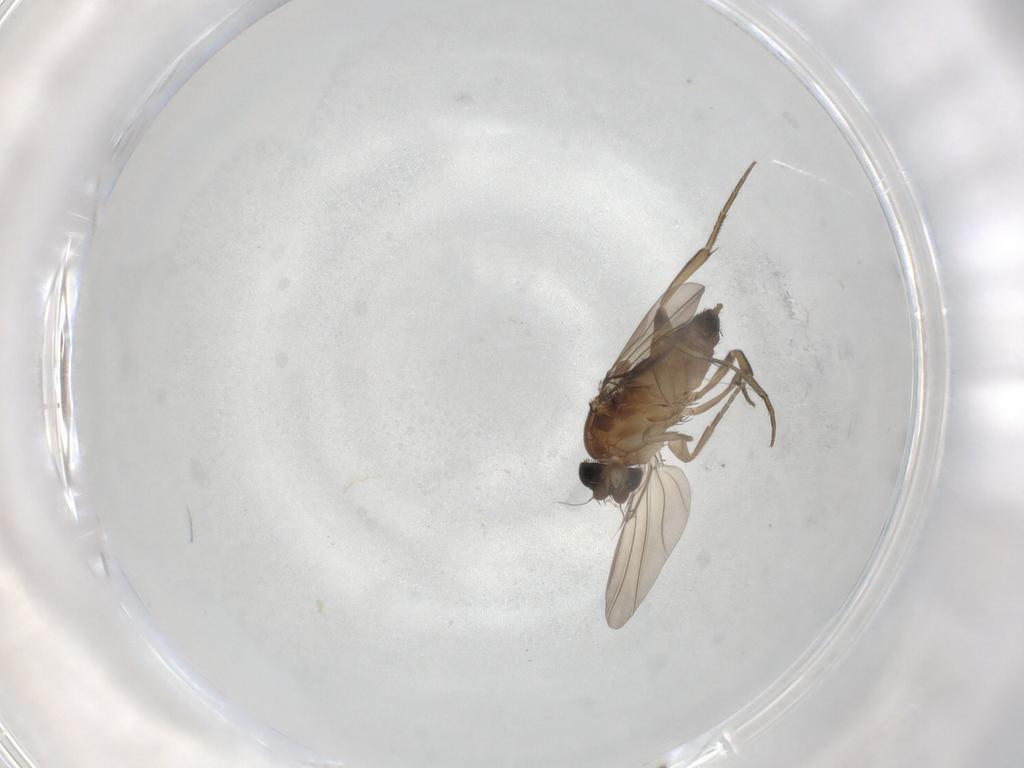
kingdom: Animalia
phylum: Arthropoda
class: Insecta
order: Diptera
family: Phoridae
